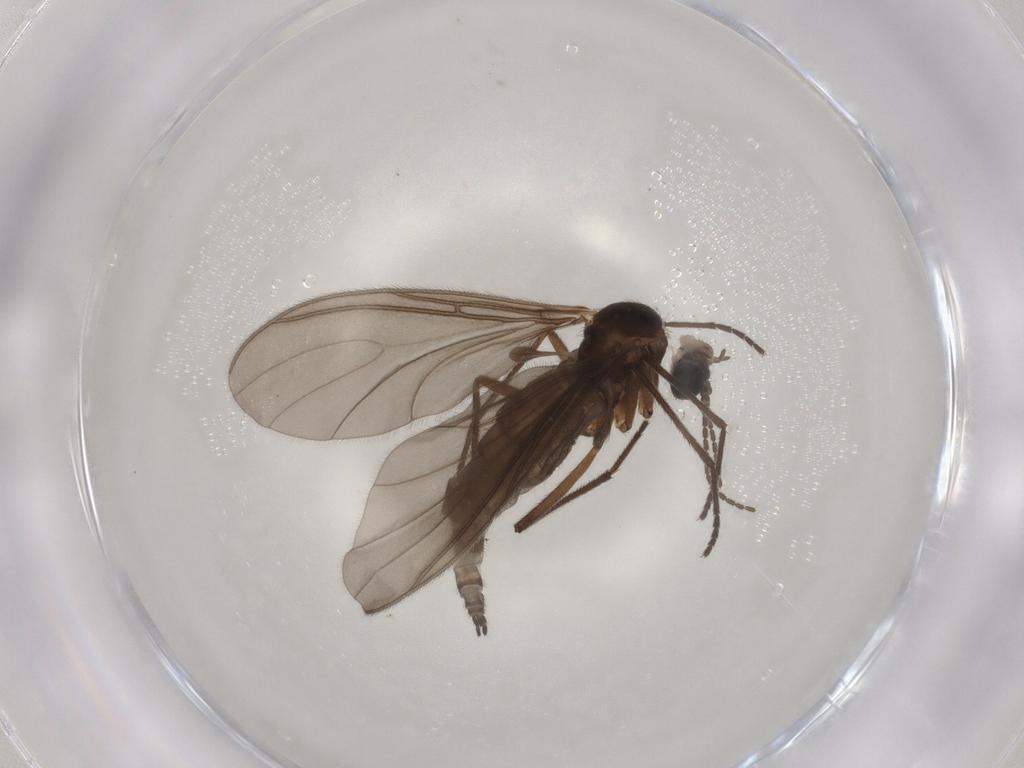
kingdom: Animalia
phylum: Arthropoda
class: Insecta
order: Diptera
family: Sciaridae
